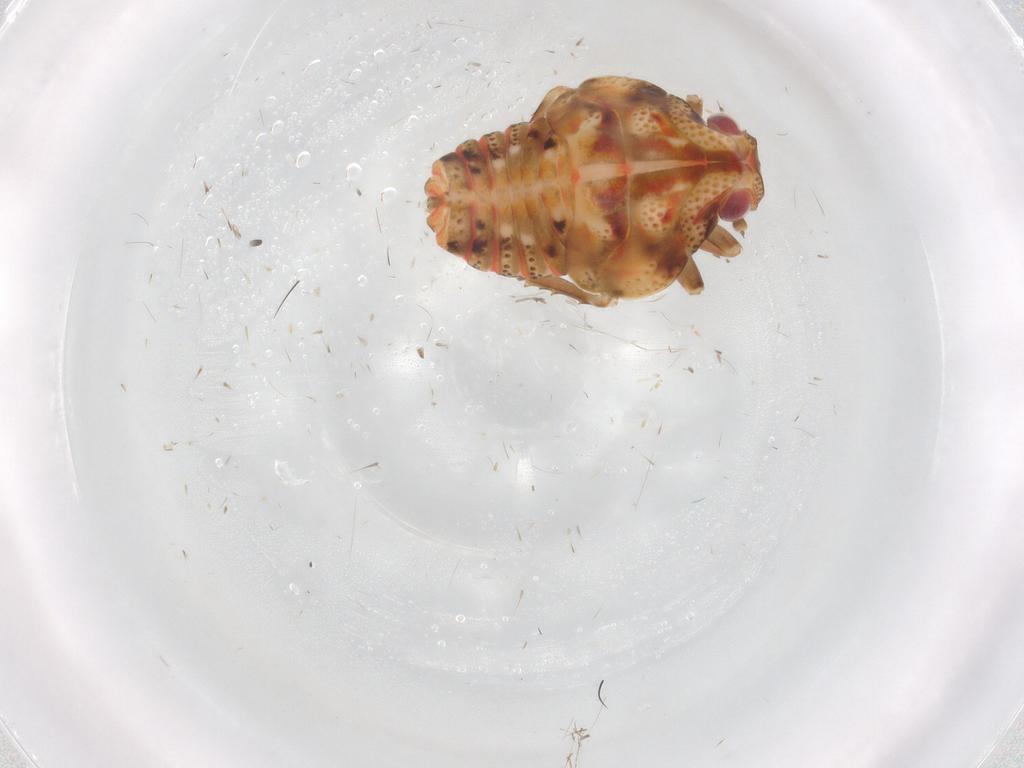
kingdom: Animalia
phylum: Arthropoda
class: Insecta
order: Hemiptera
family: Flatidae
